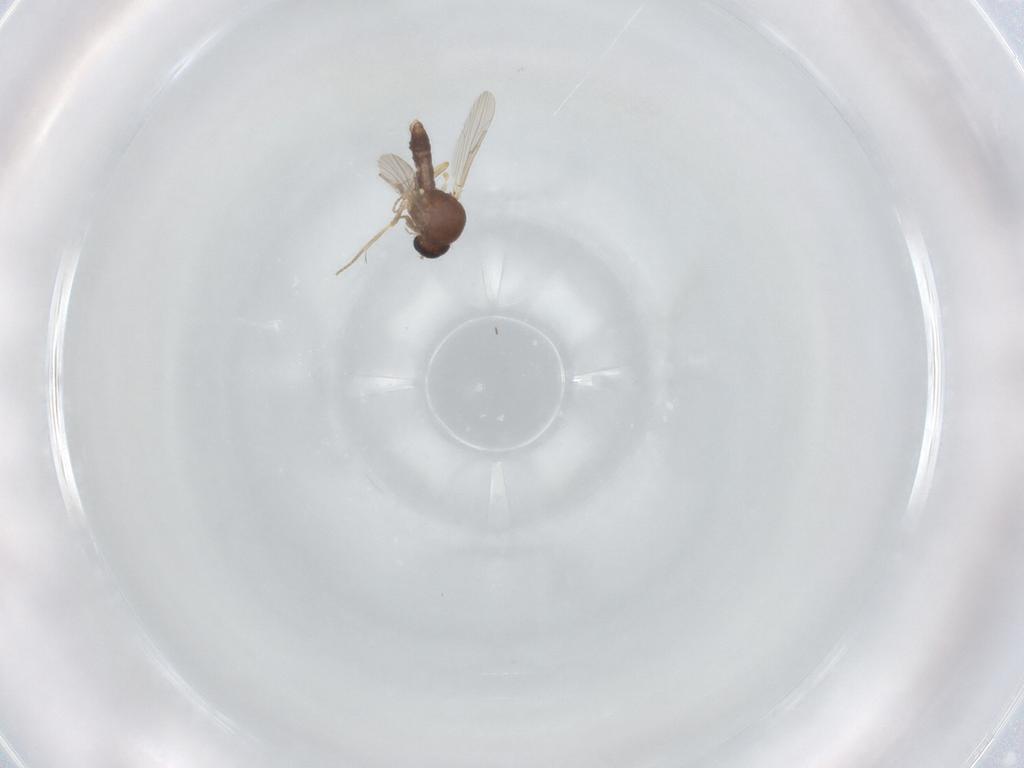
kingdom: Animalia
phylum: Arthropoda
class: Insecta
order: Diptera
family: Ceratopogonidae
